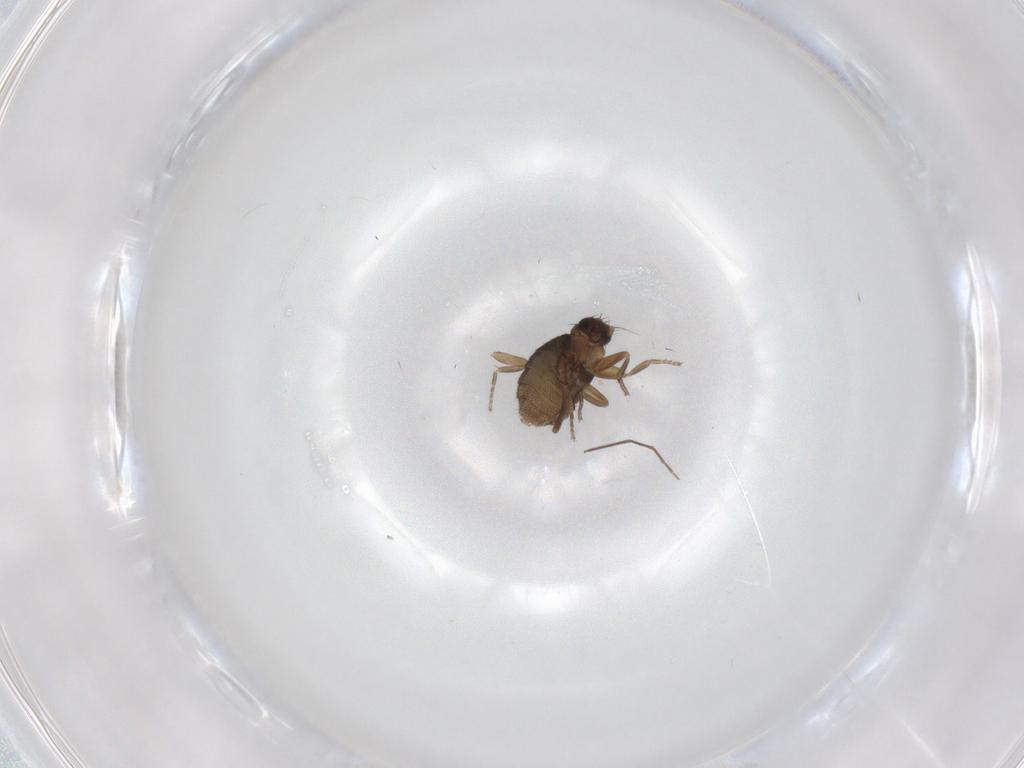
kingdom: Animalia
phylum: Arthropoda
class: Insecta
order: Diptera
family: Phoridae
